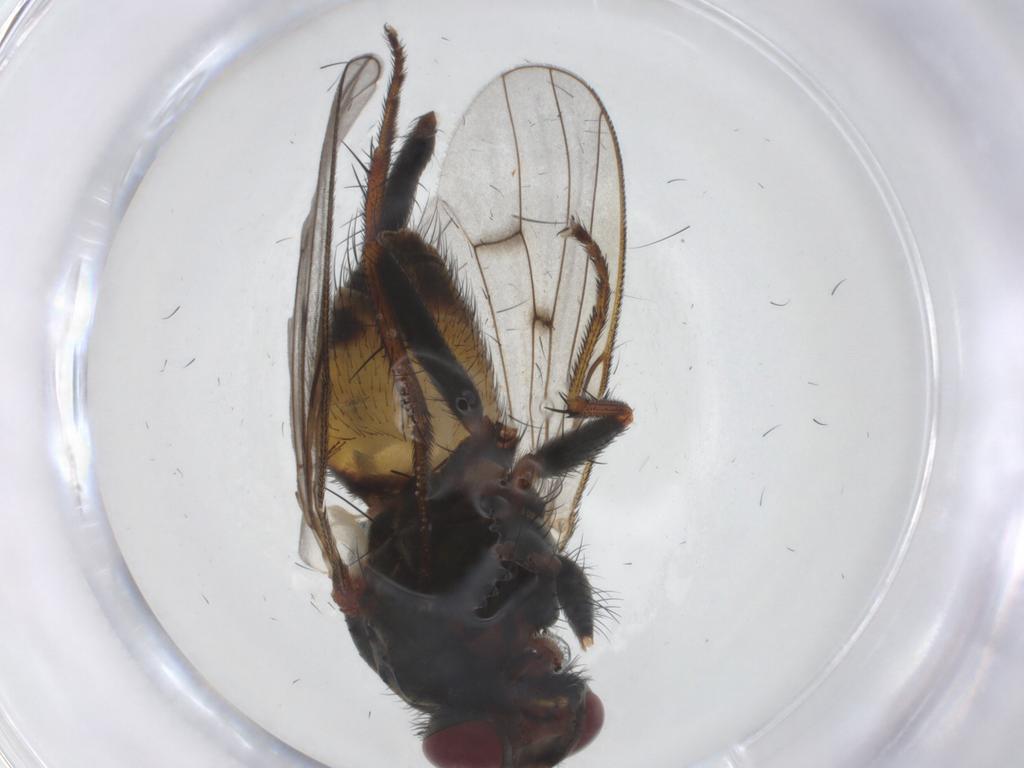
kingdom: Animalia
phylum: Arthropoda
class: Insecta
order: Diptera
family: Muscidae
